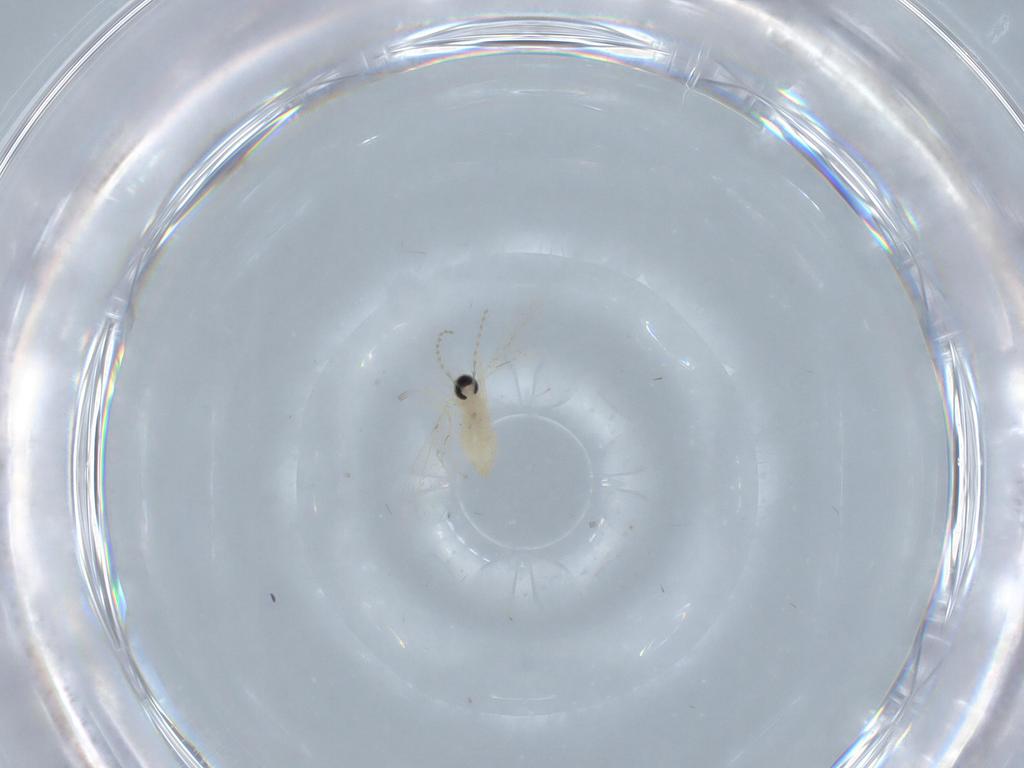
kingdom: Animalia
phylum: Arthropoda
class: Insecta
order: Diptera
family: Cecidomyiidae
